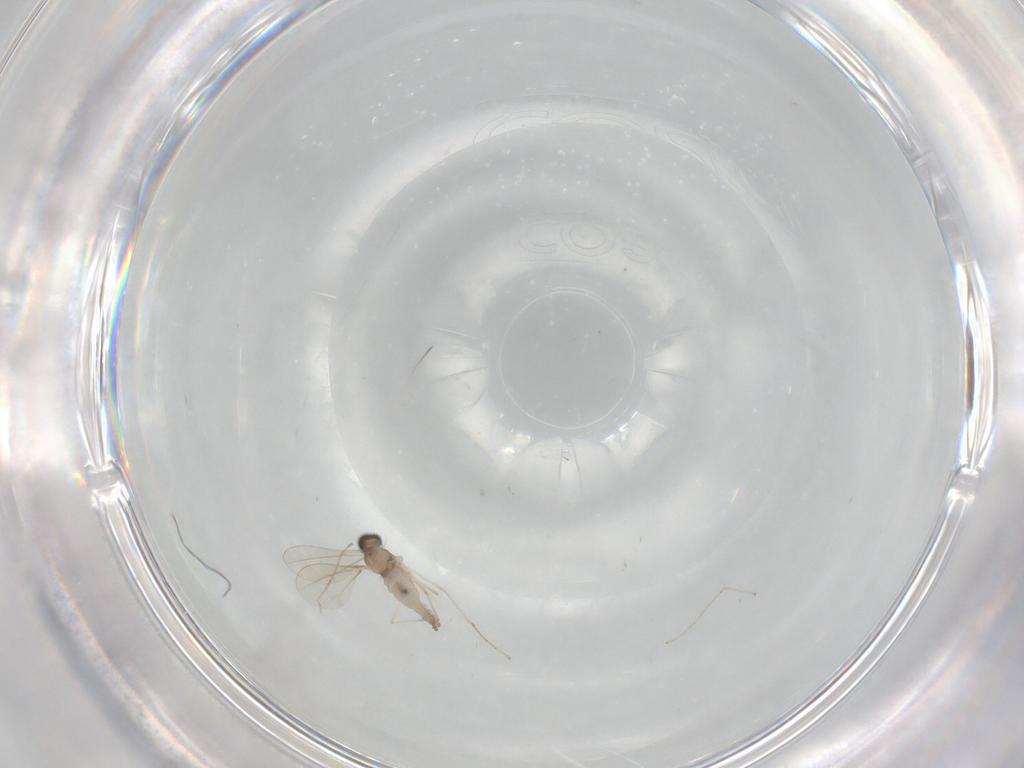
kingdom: Animalia
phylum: Arthropoda
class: Insecta
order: Diptera
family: Cecidomyiidae
